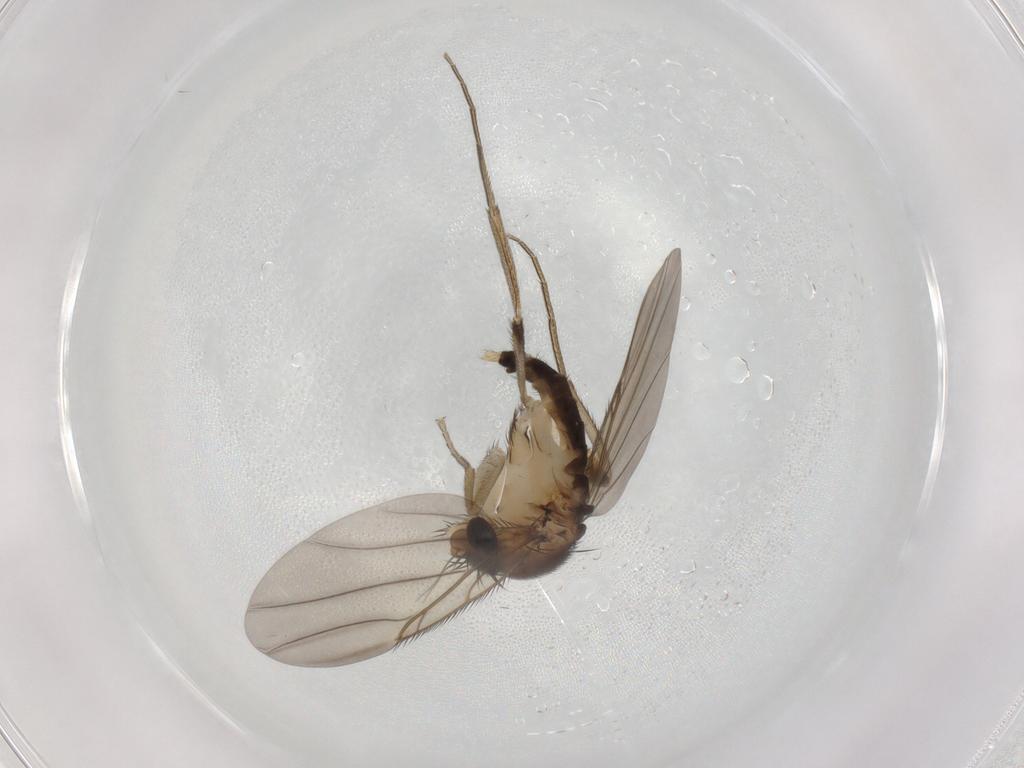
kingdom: Animalia
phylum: Arthropoda
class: Insecta
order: Diptera
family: Phoridae
